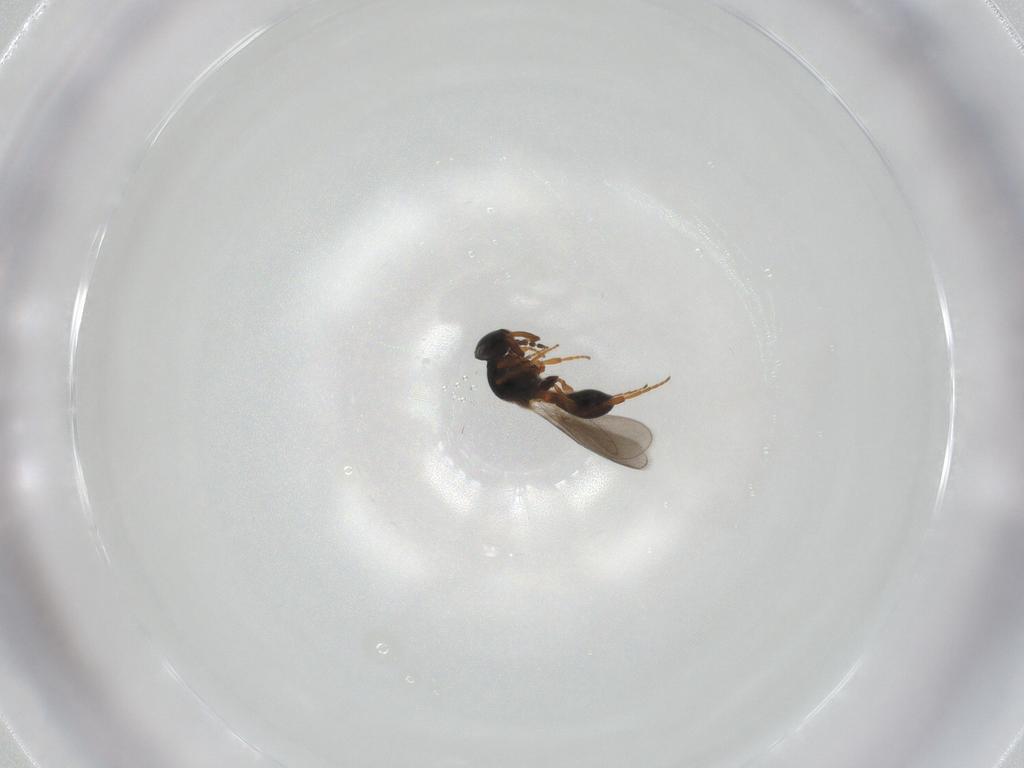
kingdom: Animalia
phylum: Arthropoda
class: Insecta
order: Hymenoptera
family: Platygastridae
